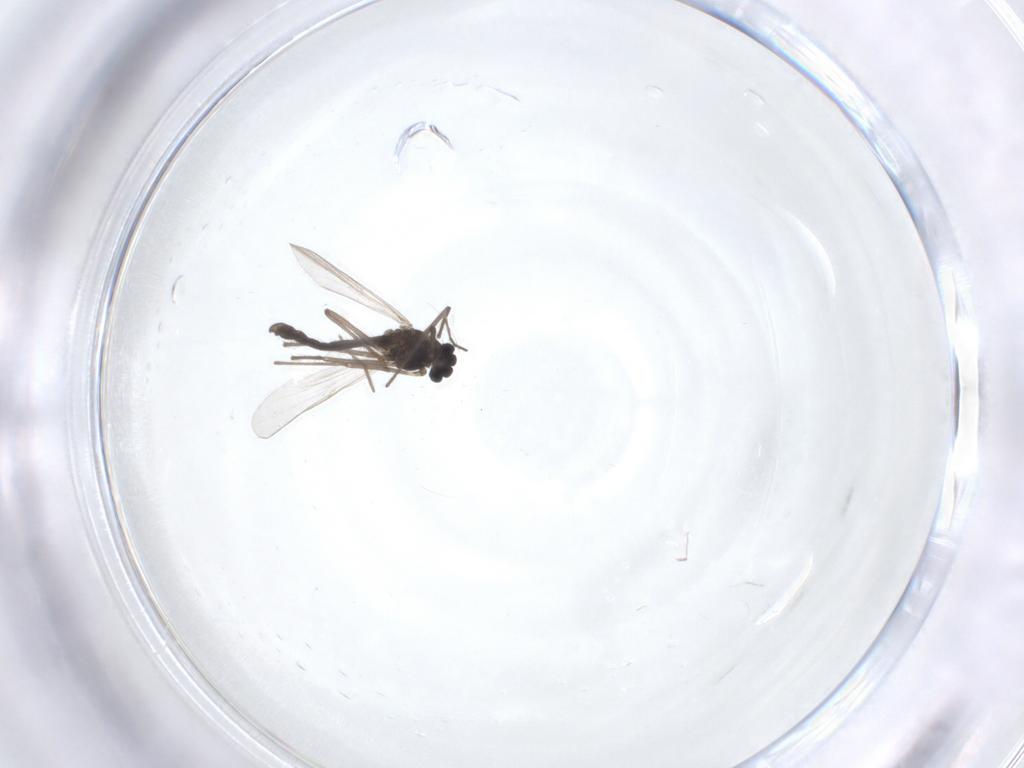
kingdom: Animalia
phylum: Arthropoda
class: Insecta
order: Diptera
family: Chironomidae
